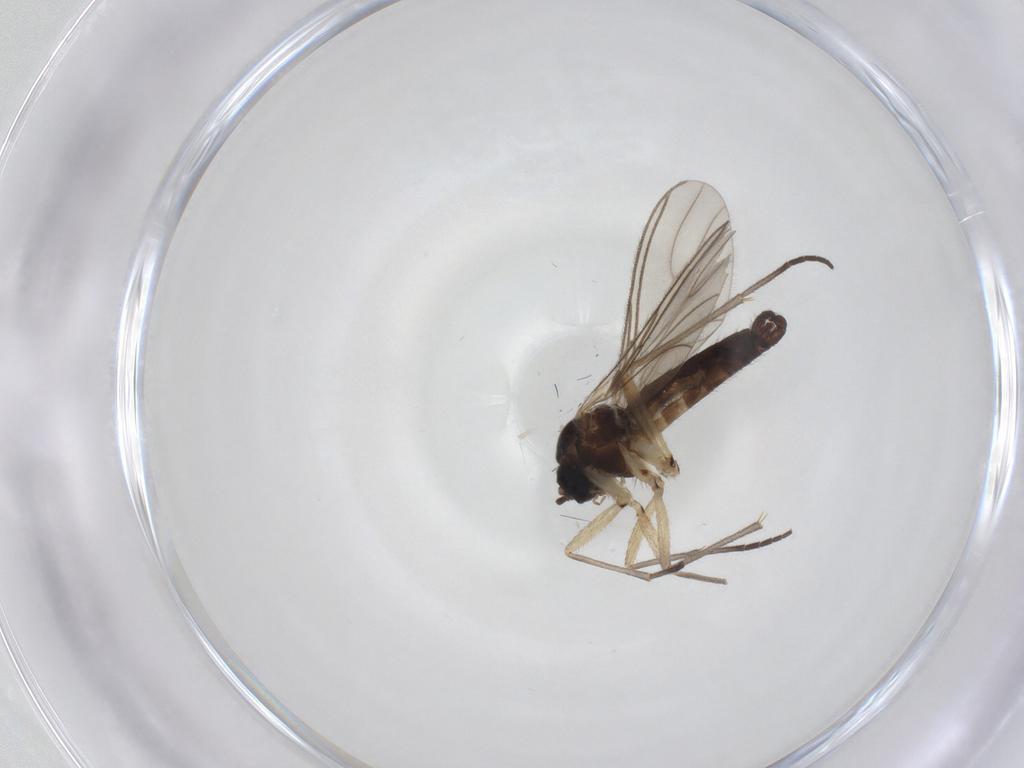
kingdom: Animalia
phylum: Arthropoda
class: Insecta
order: Diptera
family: Sciaridae
